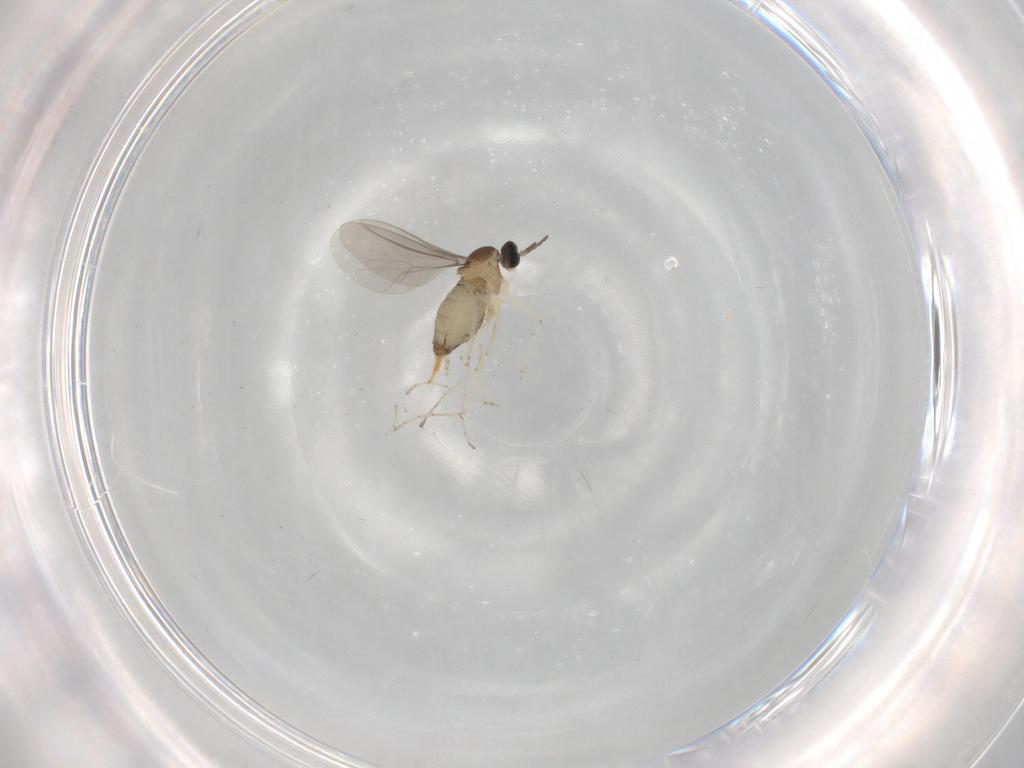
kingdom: Animalia
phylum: Arthropoda
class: Insecta
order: Diptera
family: Cecidomyiidae
